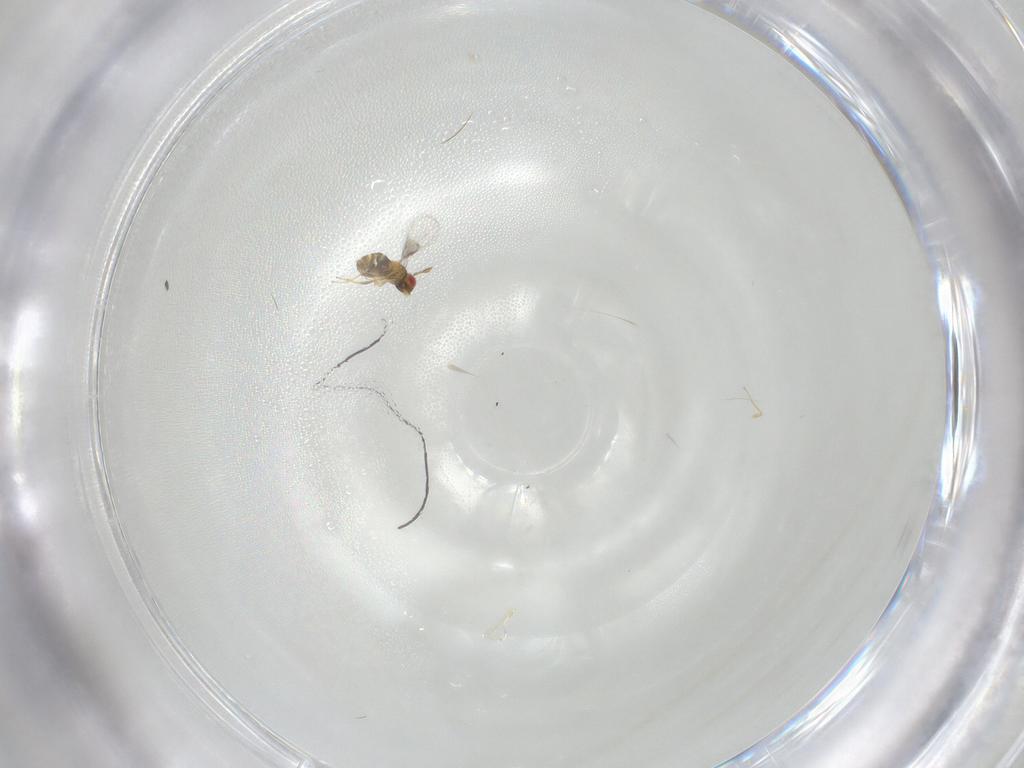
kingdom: Animalia
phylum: Arthropoda
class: Insecta
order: Hymenoptera
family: Trichogrammatidae
